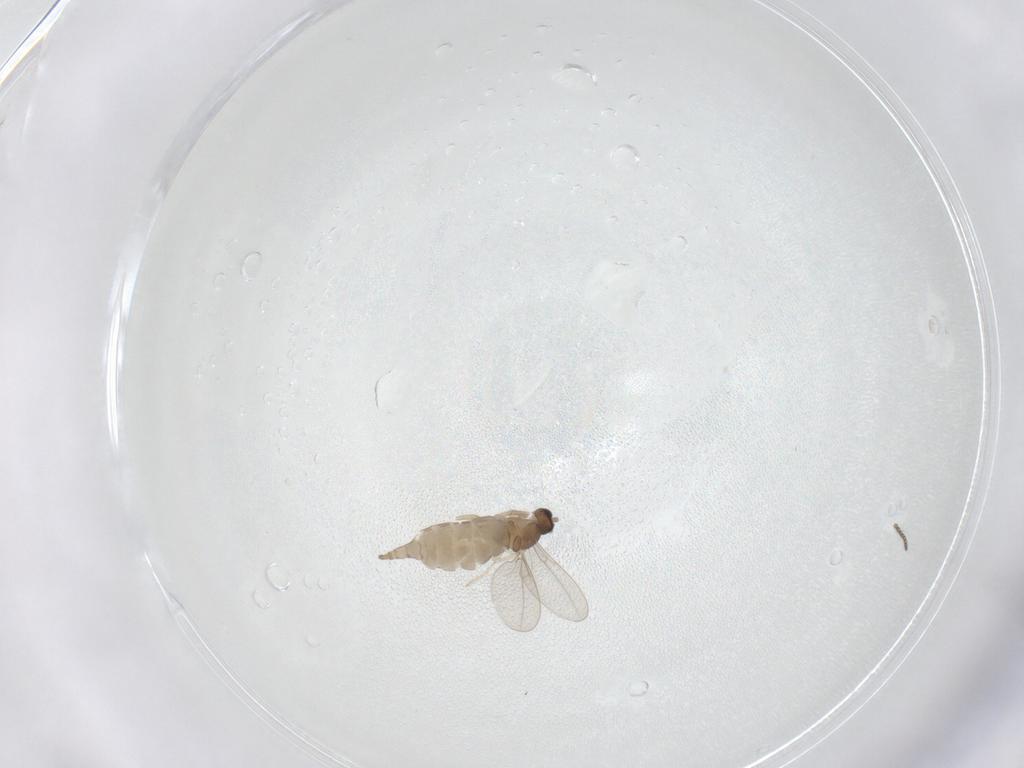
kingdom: Animalia
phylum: Arthropoda
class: Insecta
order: Diptera
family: Cecidomyiidae
